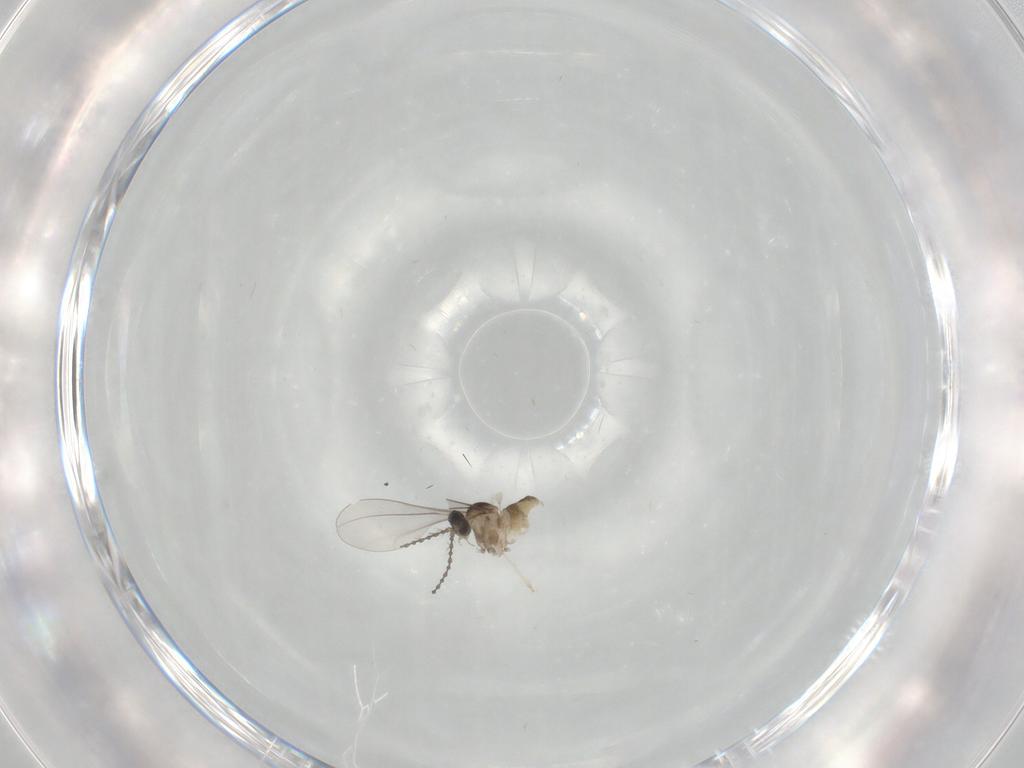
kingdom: Animalia
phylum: Arthropoda
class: Insecta
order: Diptera
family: Cecidomyiidae
